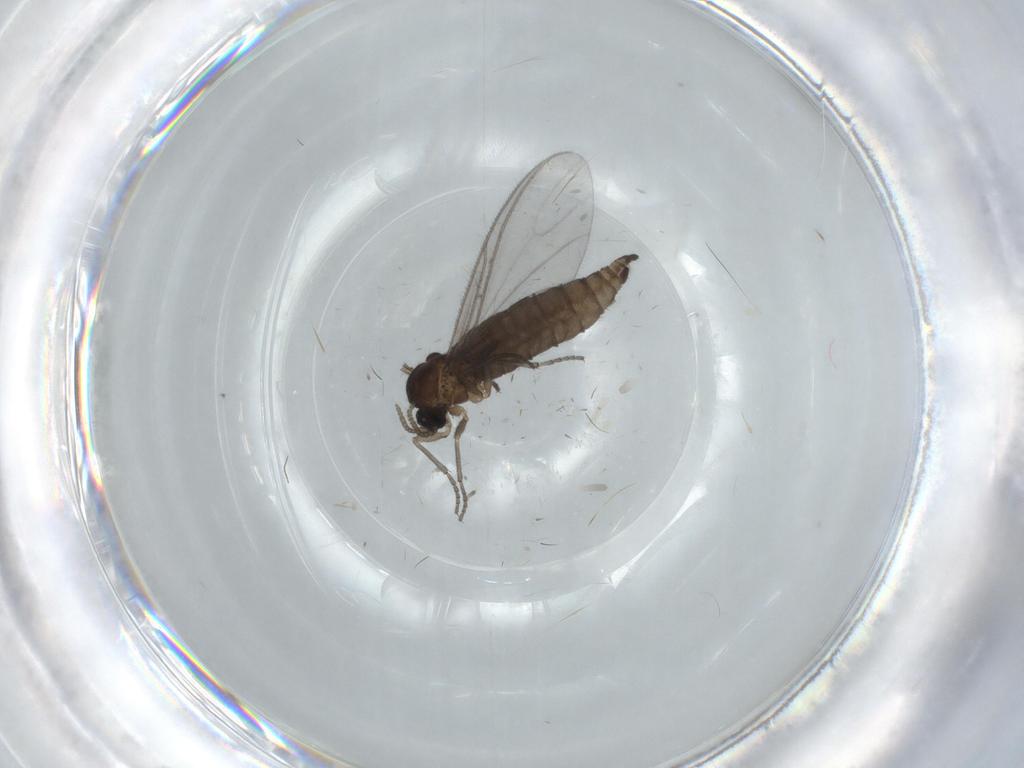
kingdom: Animalia
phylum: Arthropoda
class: Insecta
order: Diptera
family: Sciaridae
